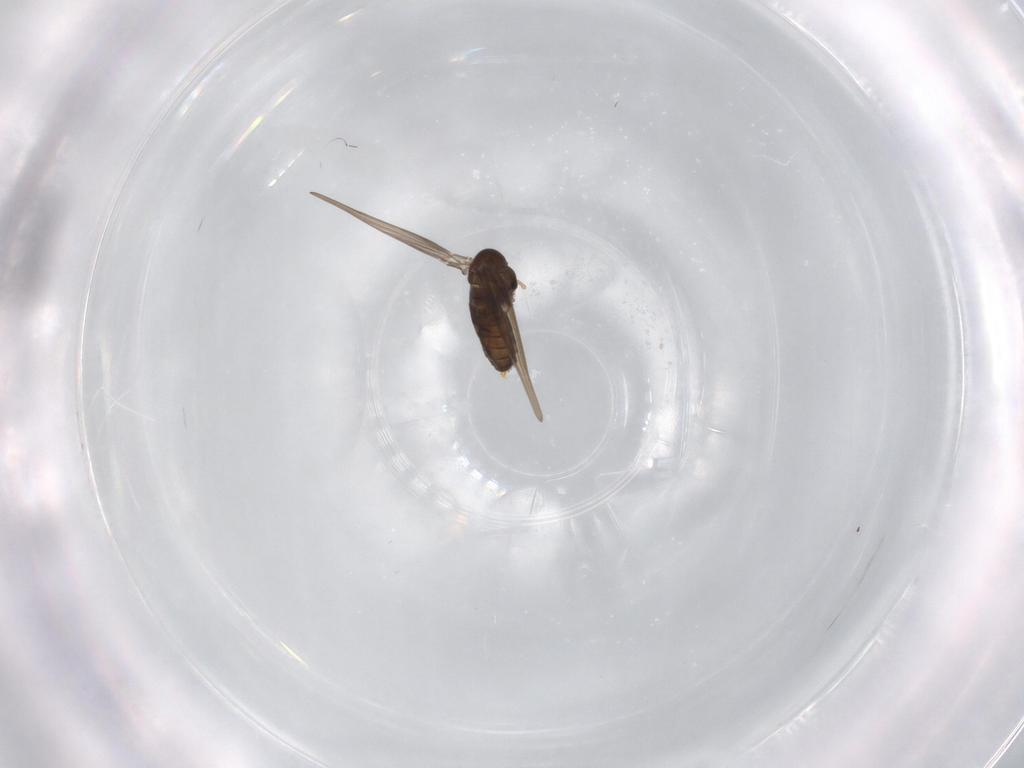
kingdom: Animalia
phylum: Arthropoda
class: Insecta
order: Diptera
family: Psychodidae
